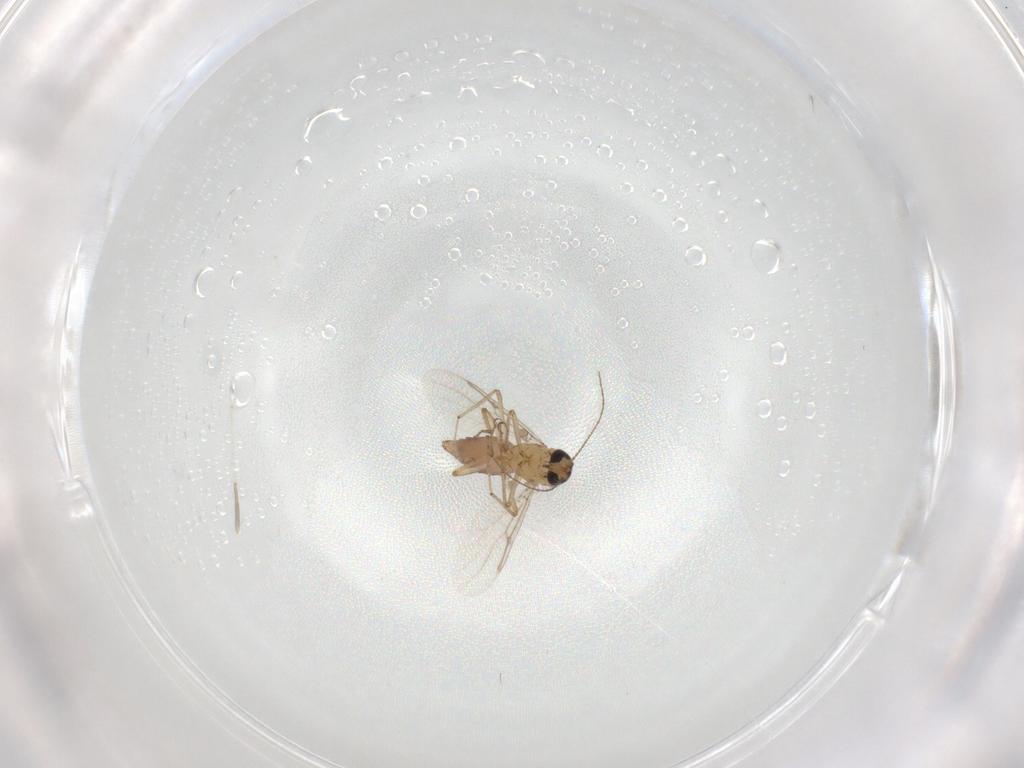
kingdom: Animalia
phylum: Arthropoda
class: Insecta
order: Diptera
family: Cecidomyiidae
